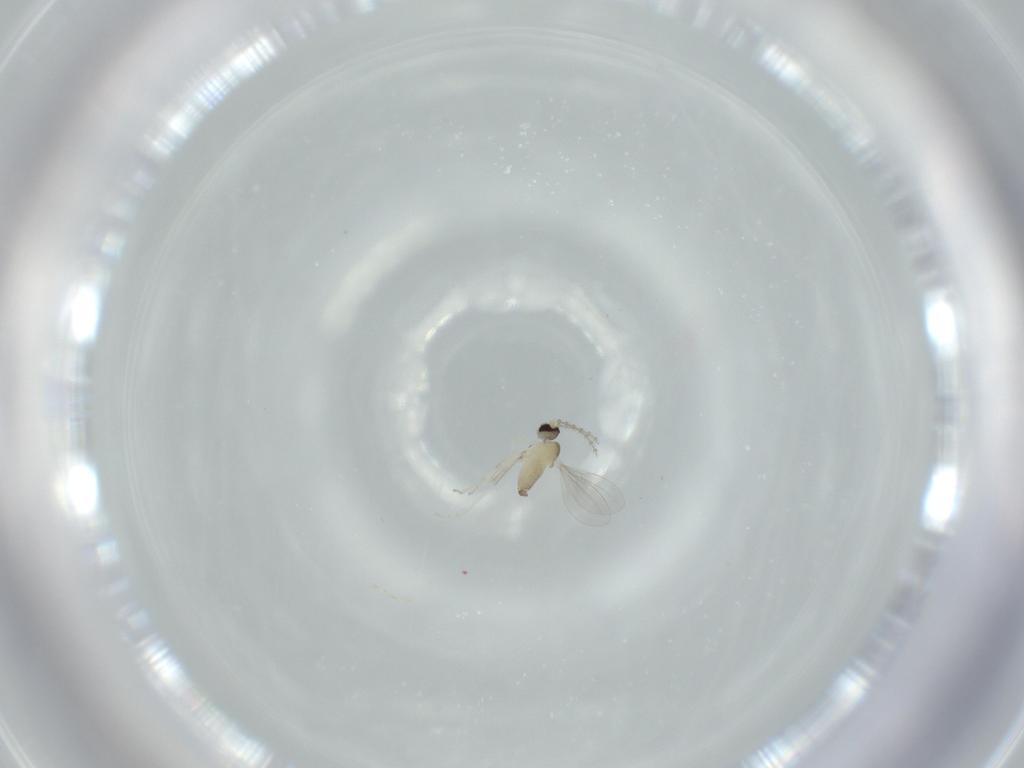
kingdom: Animalia
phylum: Arthropoda
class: Insecta
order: Diptera
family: Cecidomyiidae
